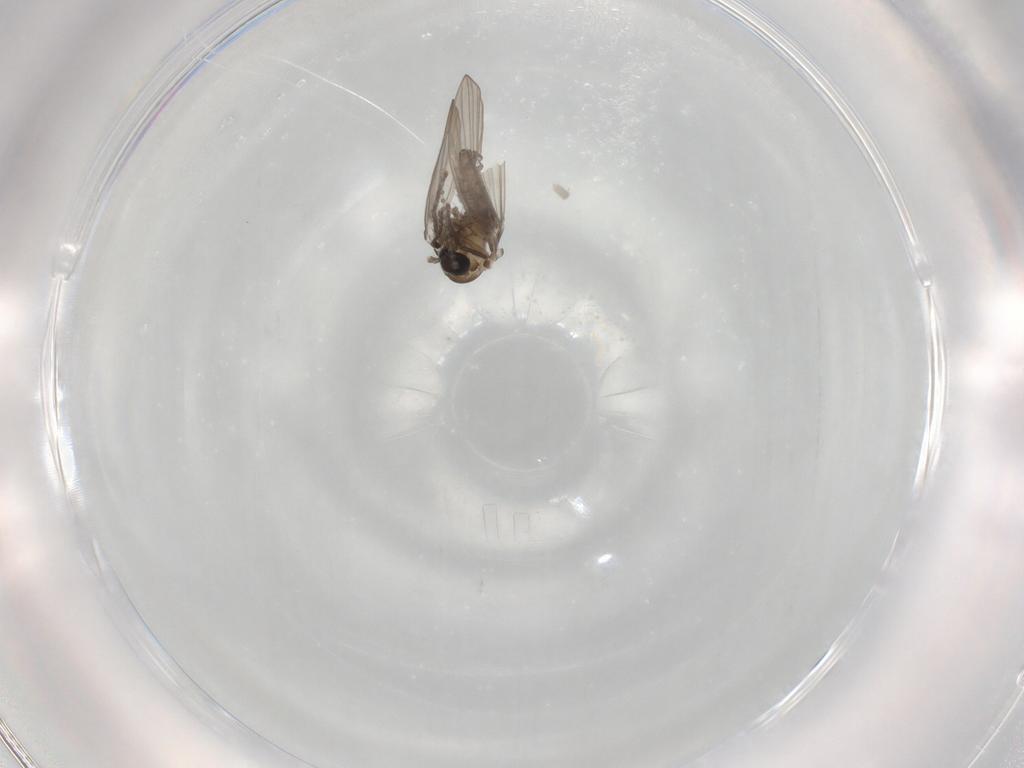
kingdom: Animalia
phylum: Arthropoda
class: Insecta
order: Diptera
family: Psychodidae
